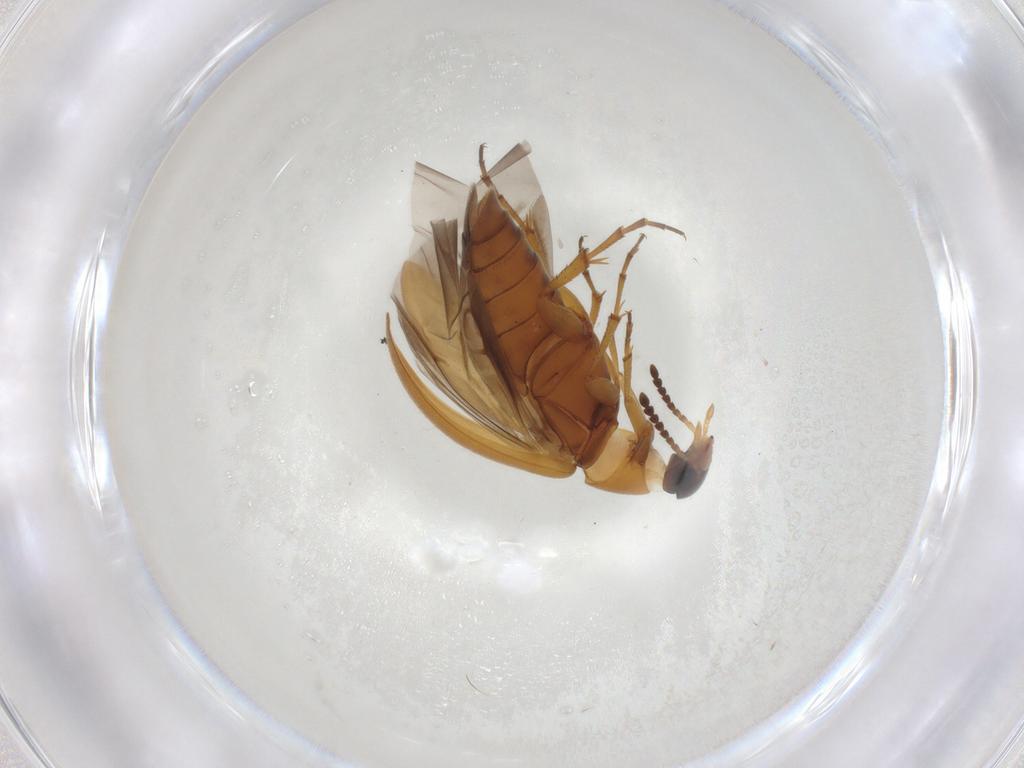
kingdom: Animalia
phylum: Arthropoda
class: Insecta
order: Coleoptera
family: Scraptiidae
